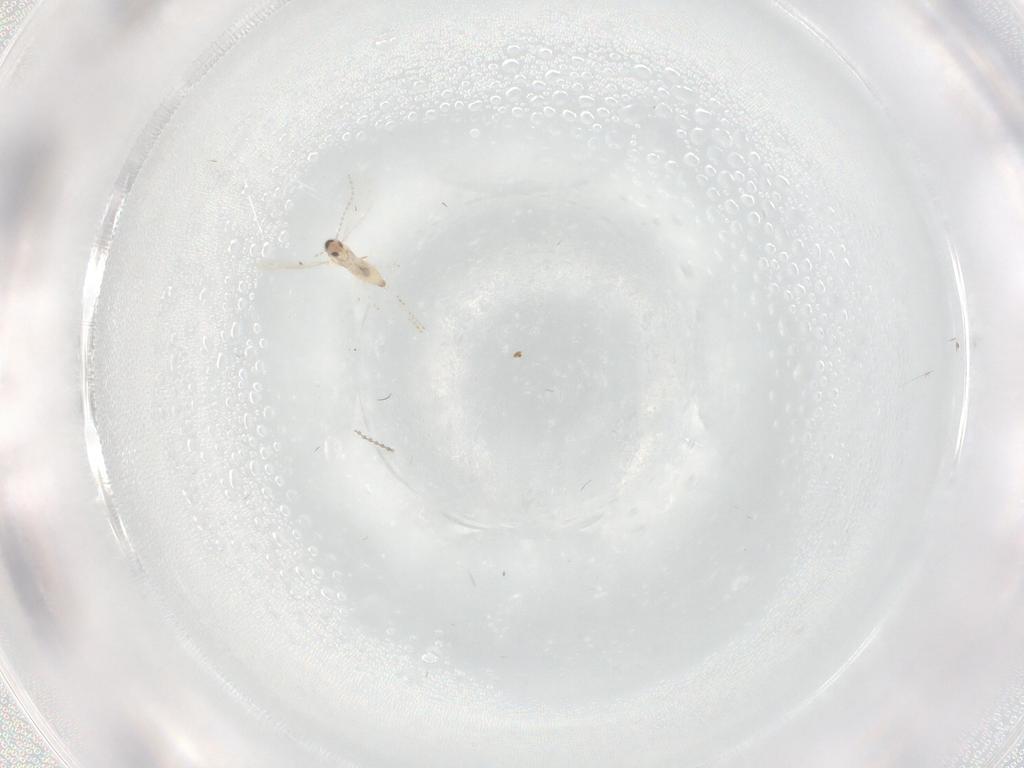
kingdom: Animalia
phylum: Arthropoda
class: Insecta
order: Diptera
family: Cecidomyiidae
